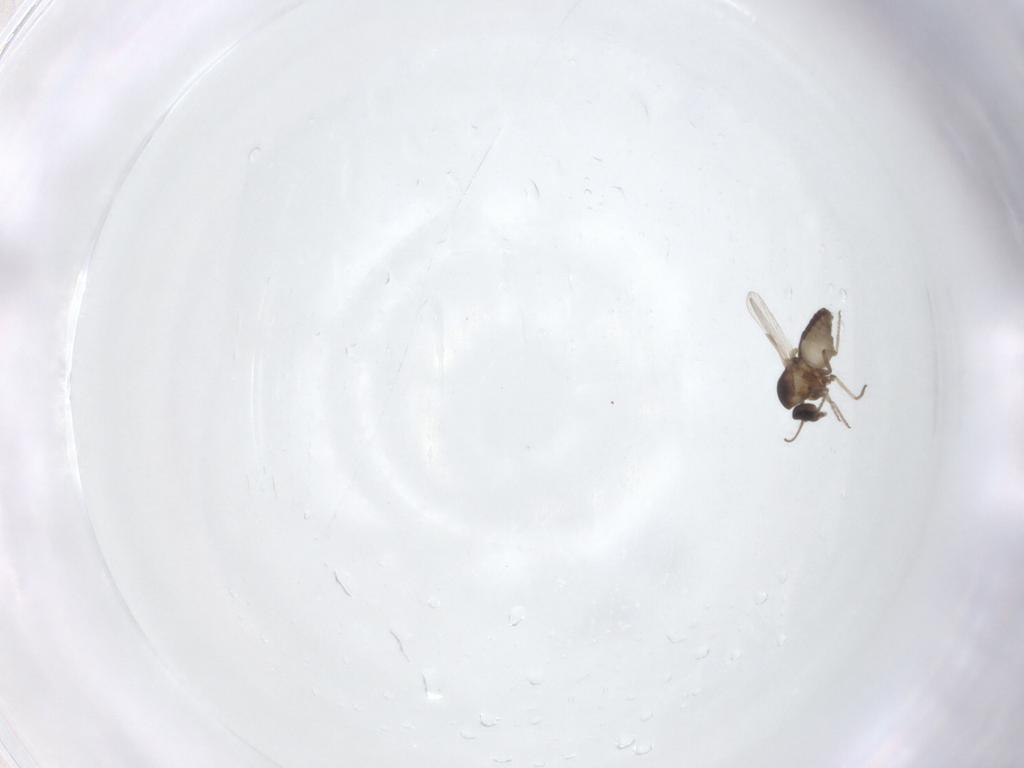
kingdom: Animalia
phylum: Arthropoda
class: Insecta
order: Diptera
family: Ceratopogonidae
